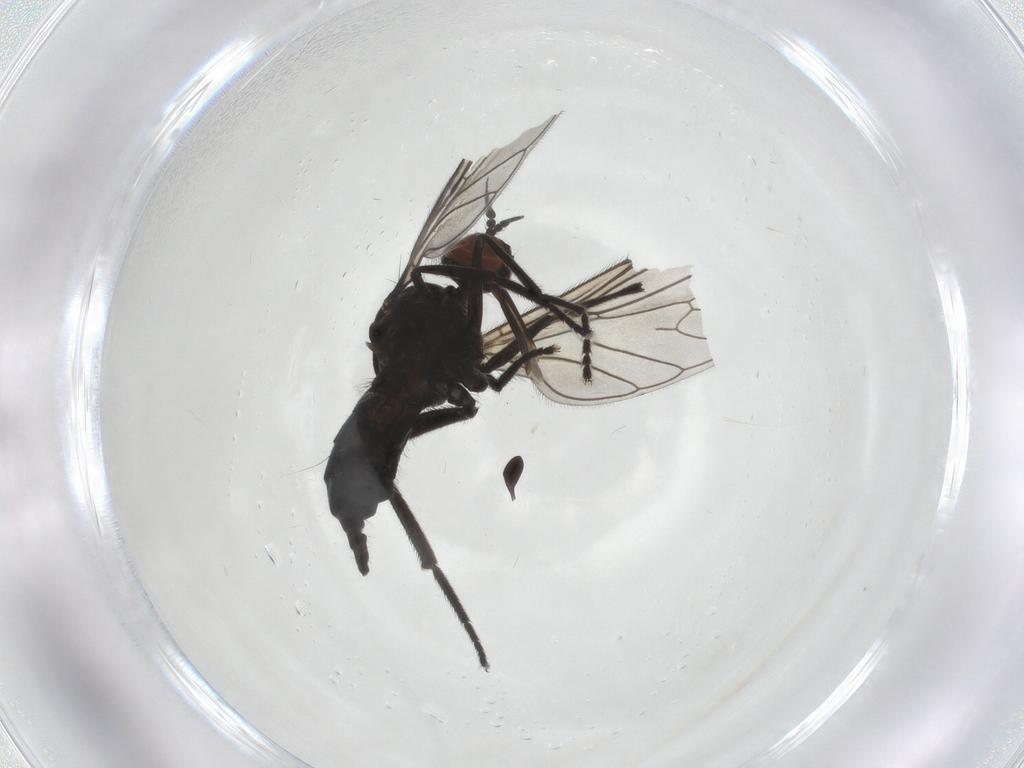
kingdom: Animalia
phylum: Arthropoda
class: Insecta
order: Diptera
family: Empididae
